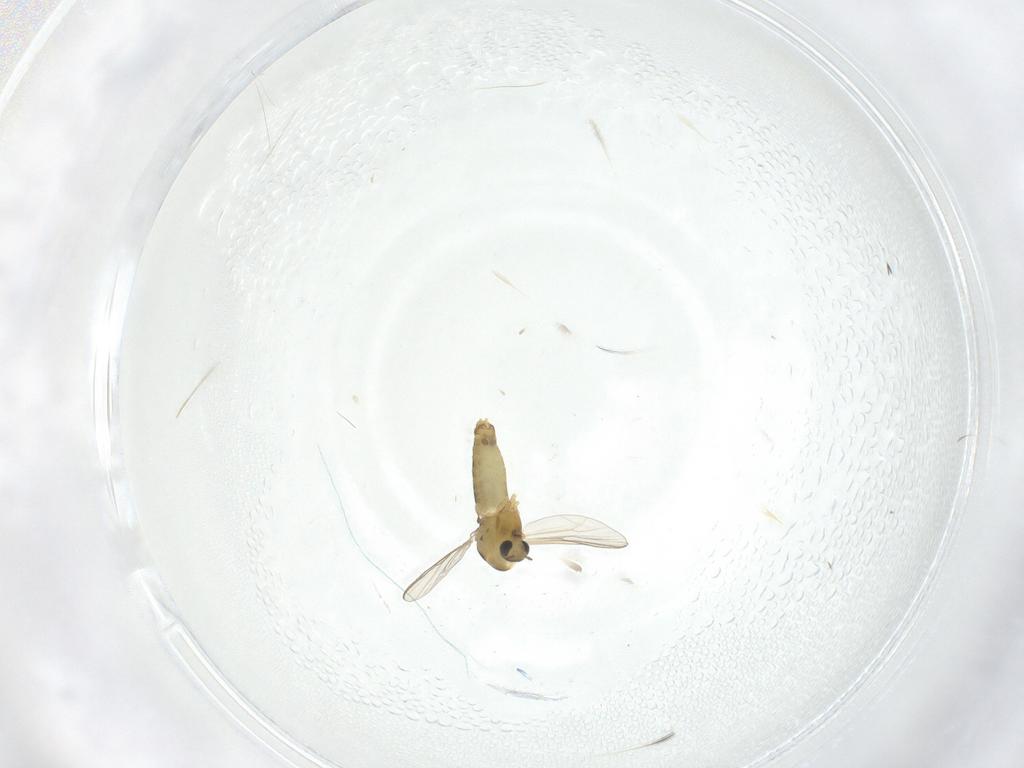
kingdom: Animalia
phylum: Arthropoda
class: Insecta
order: Diptera
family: Chironomidae
